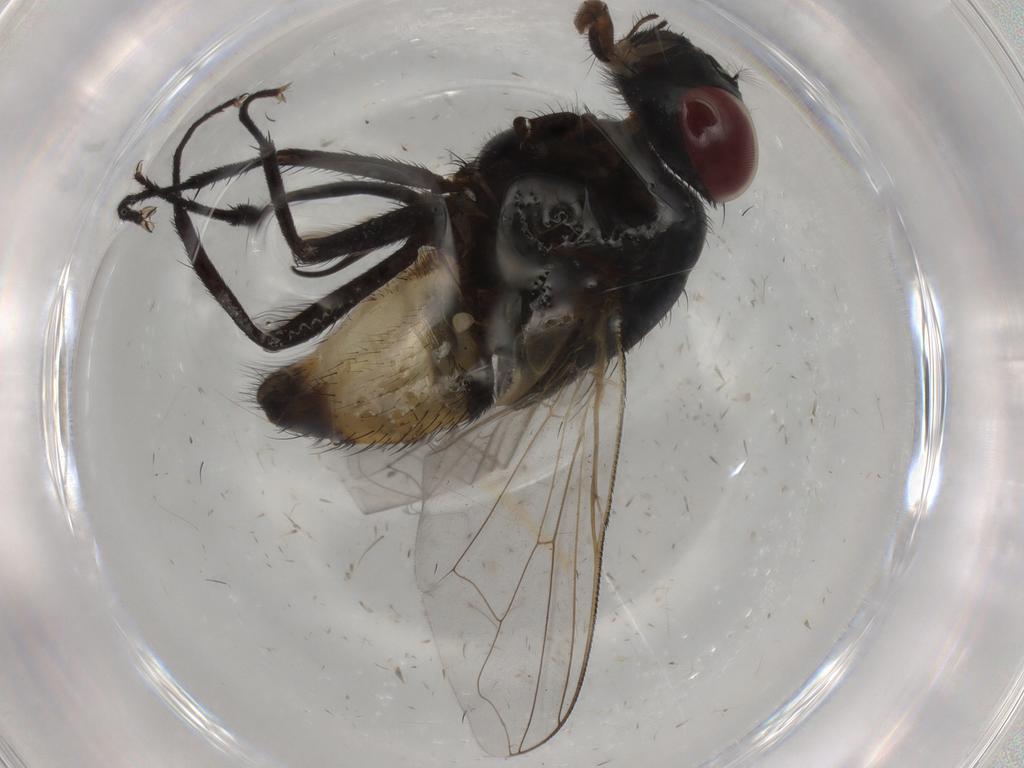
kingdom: Animalia
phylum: Arthropoda
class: Insecta
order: Diptera
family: Muscidae
